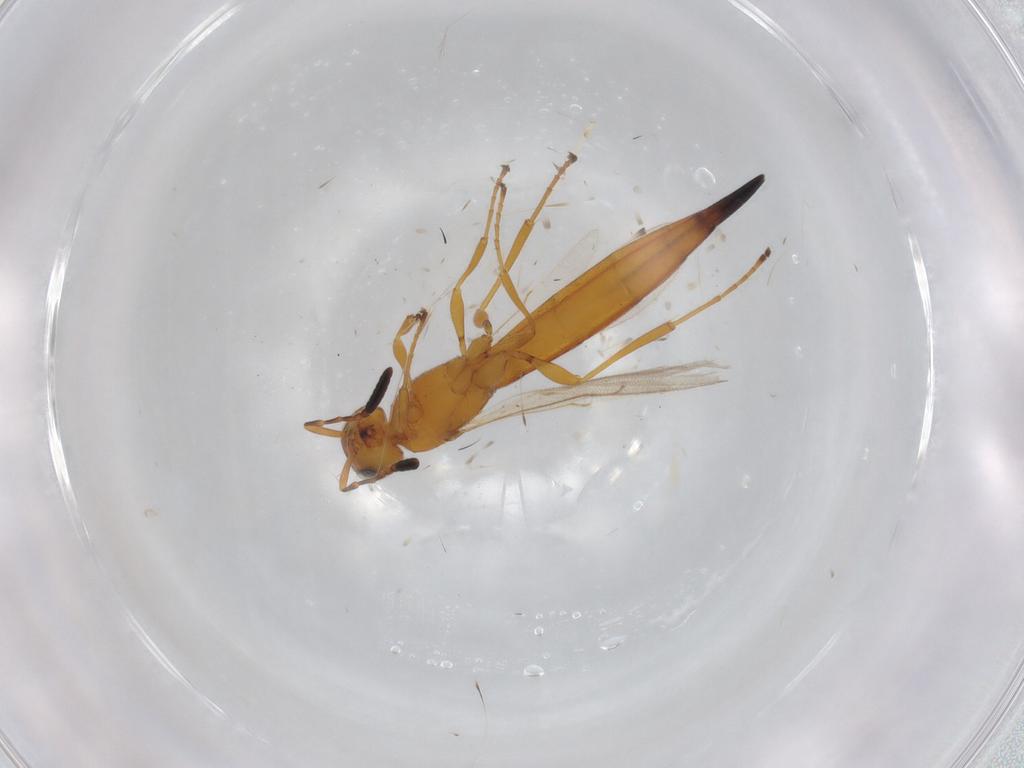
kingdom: Animalia
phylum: Arthropoda
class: Insecta
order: Hymenoptera
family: Scelionidae
